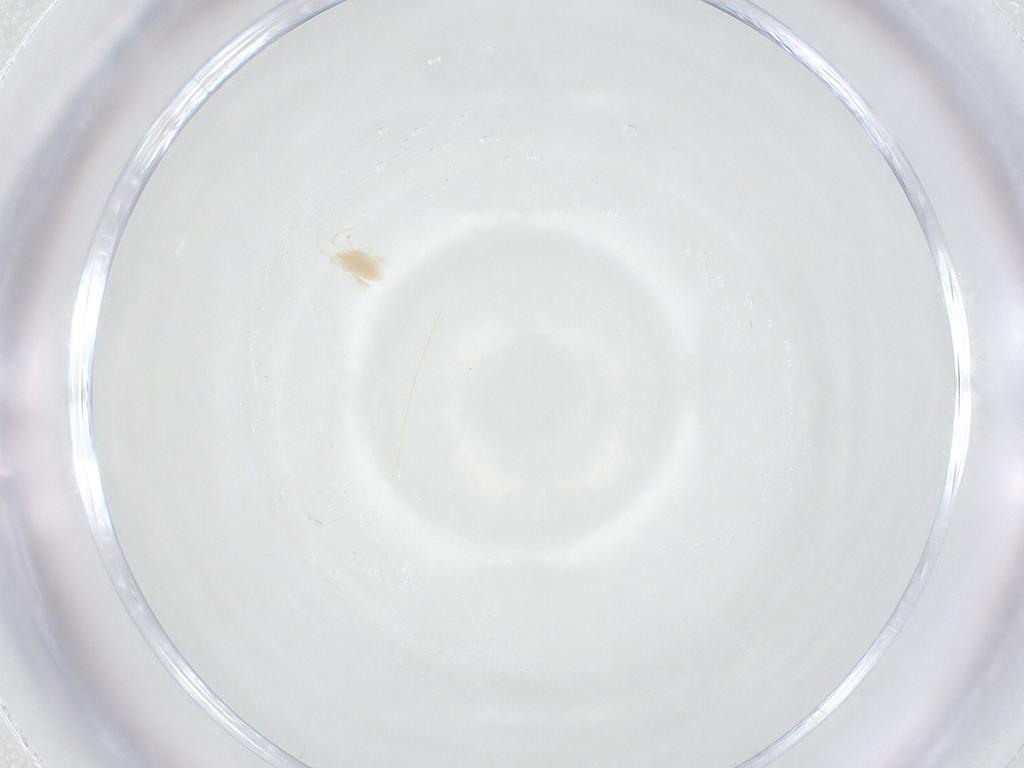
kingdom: Animalia
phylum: Arthropoda
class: Arachnida
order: Trombidiformes
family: Eupodidae
